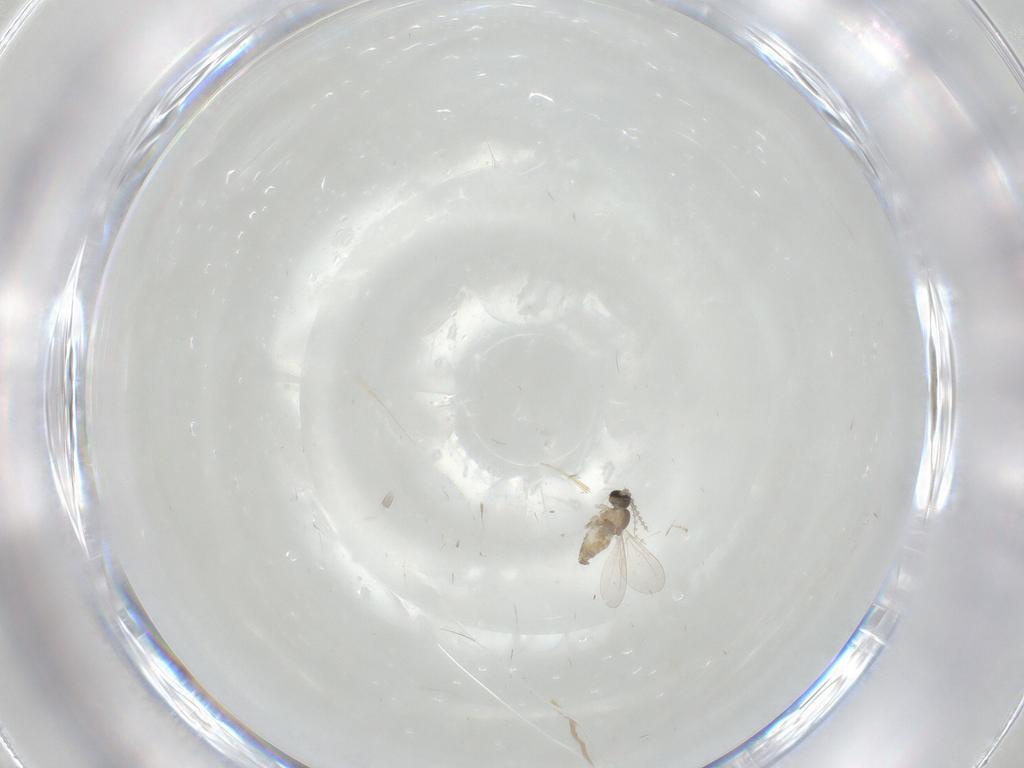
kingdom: Animalia
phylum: Arthropoda
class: Insecta
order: Diptera
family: Cecidomyiidae
